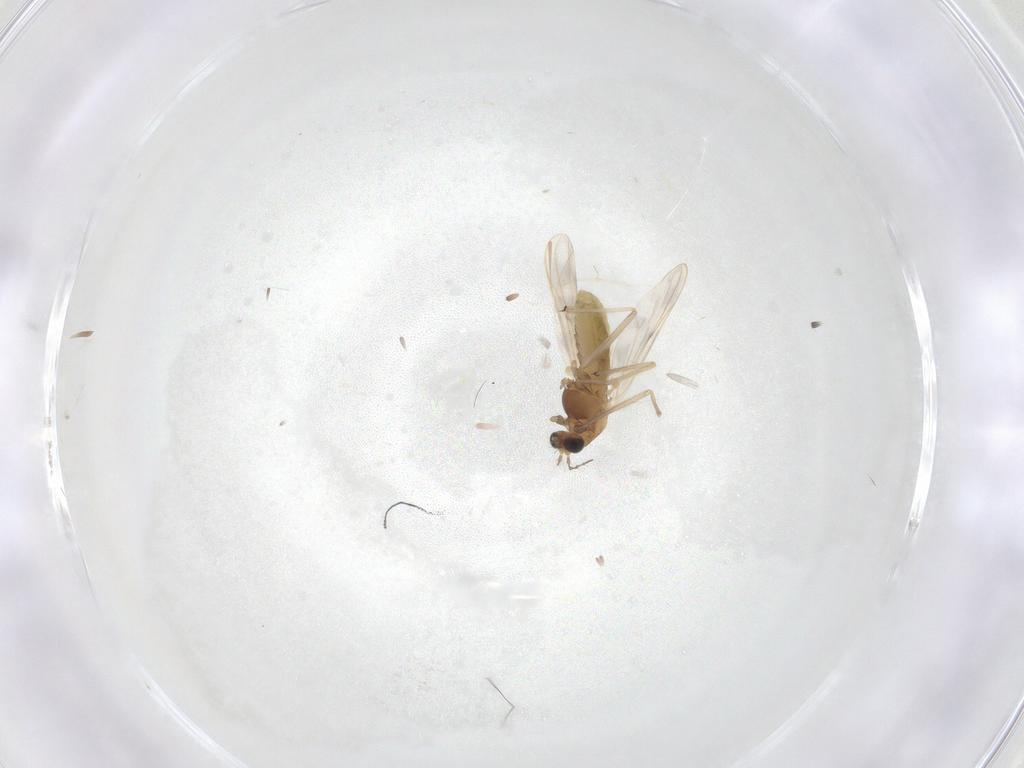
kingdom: Animalia
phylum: Arthropoda
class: Insecta
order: Diptera
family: Chironomidae
